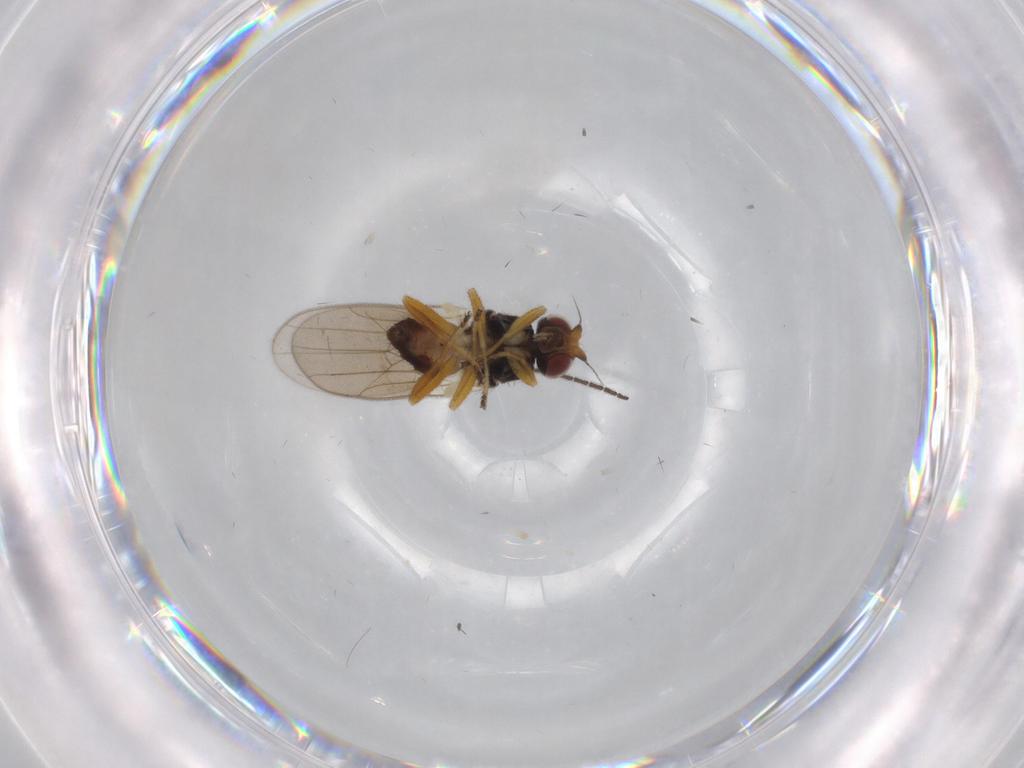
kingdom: Animalia
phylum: Arthropoda
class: Insecta
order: Diptera
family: Chloropidae
